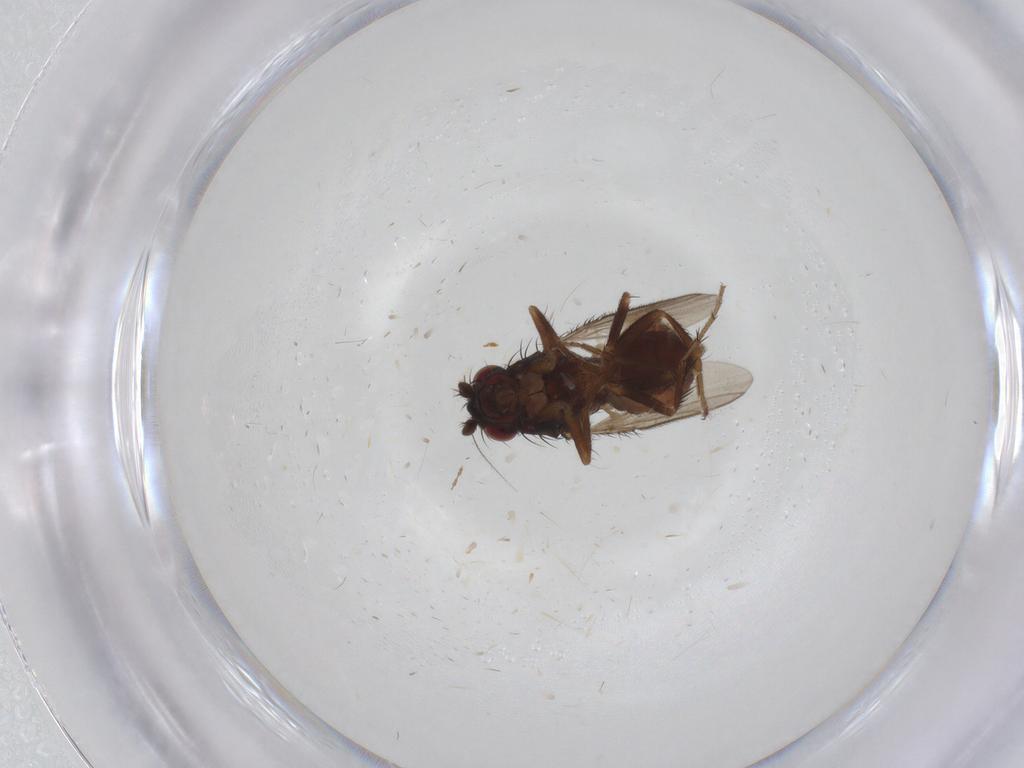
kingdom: Animalia
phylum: Arthropoda
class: Insecta
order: Diptera
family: Cecidomyiidae
